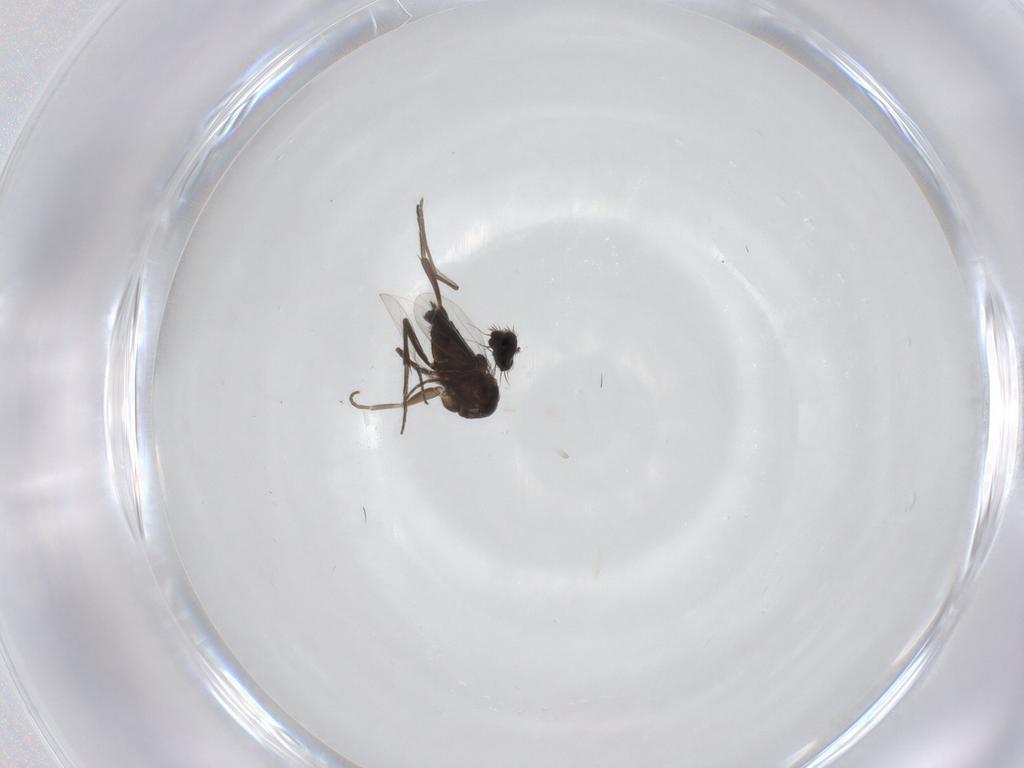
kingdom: Animalia
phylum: Arthropoda
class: Insecta
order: Diptera
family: Phoridae
